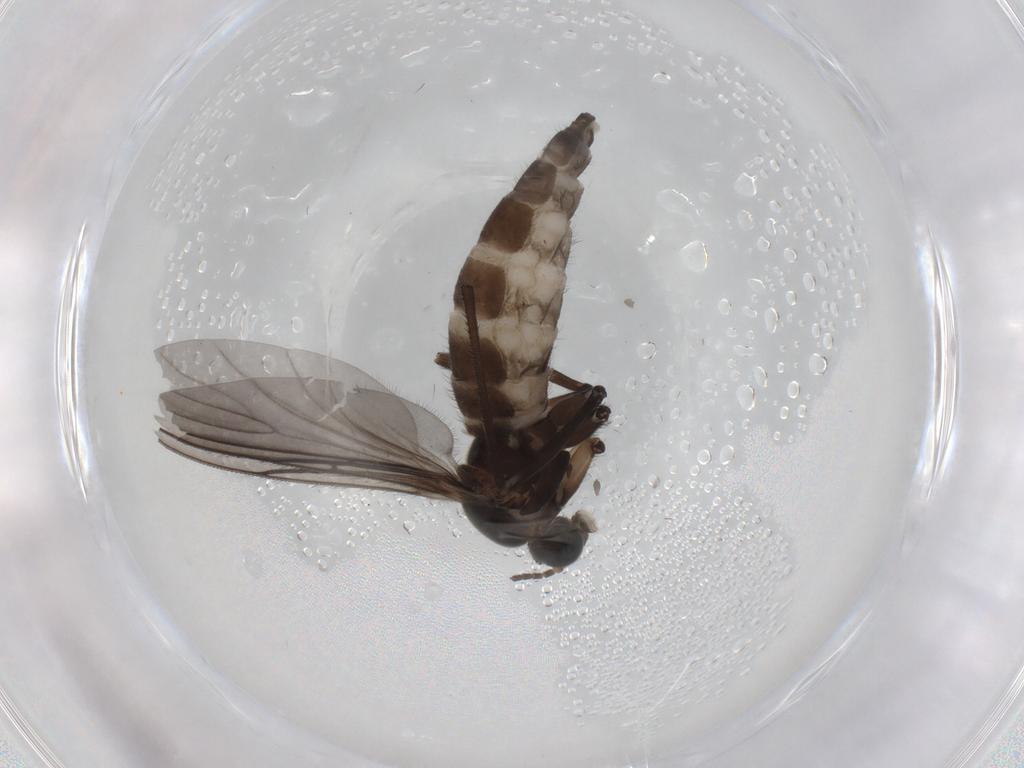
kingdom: Animalia
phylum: Arthropoda
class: Insecta
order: Diptera
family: Sciaridae
